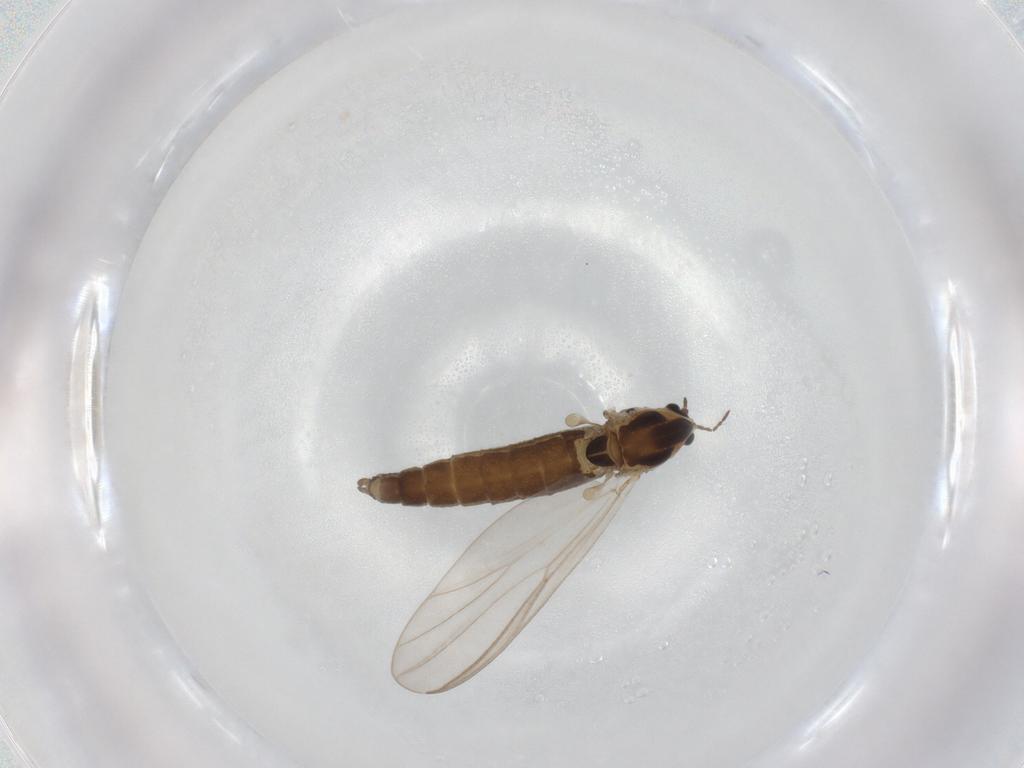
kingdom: Animalia
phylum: Arthropoda
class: Insecta
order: Diptera
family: Chironomidae
